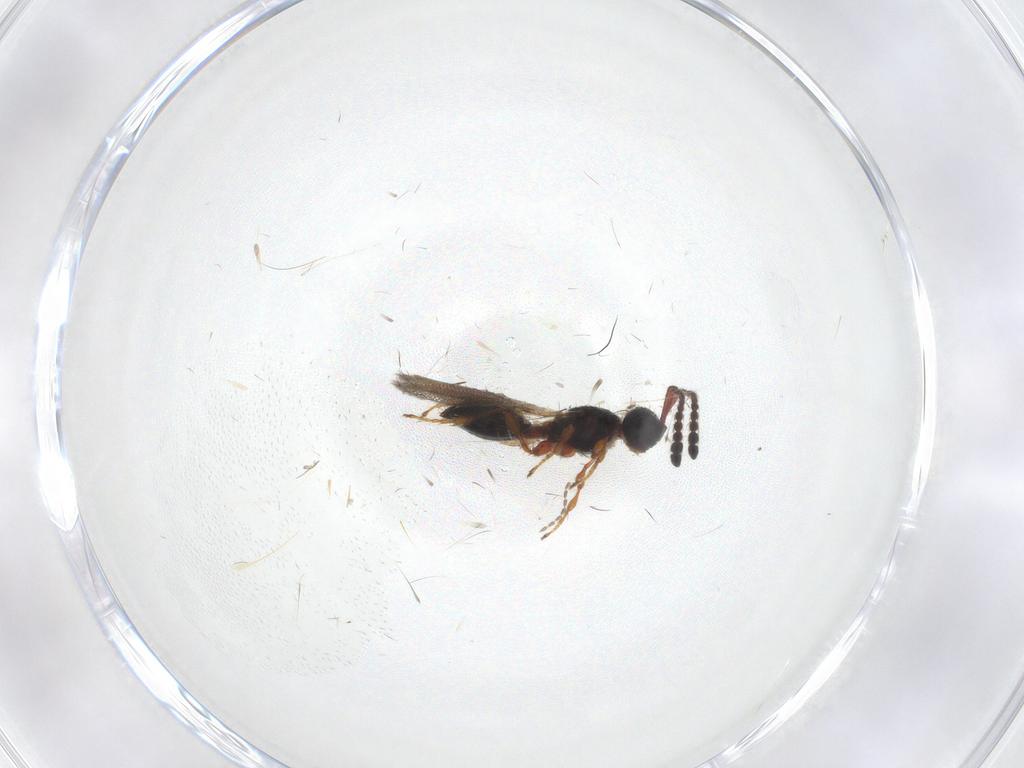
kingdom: Animalia
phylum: Arthropoda
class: Insecta
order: Hymenoptera
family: Diapriidae
